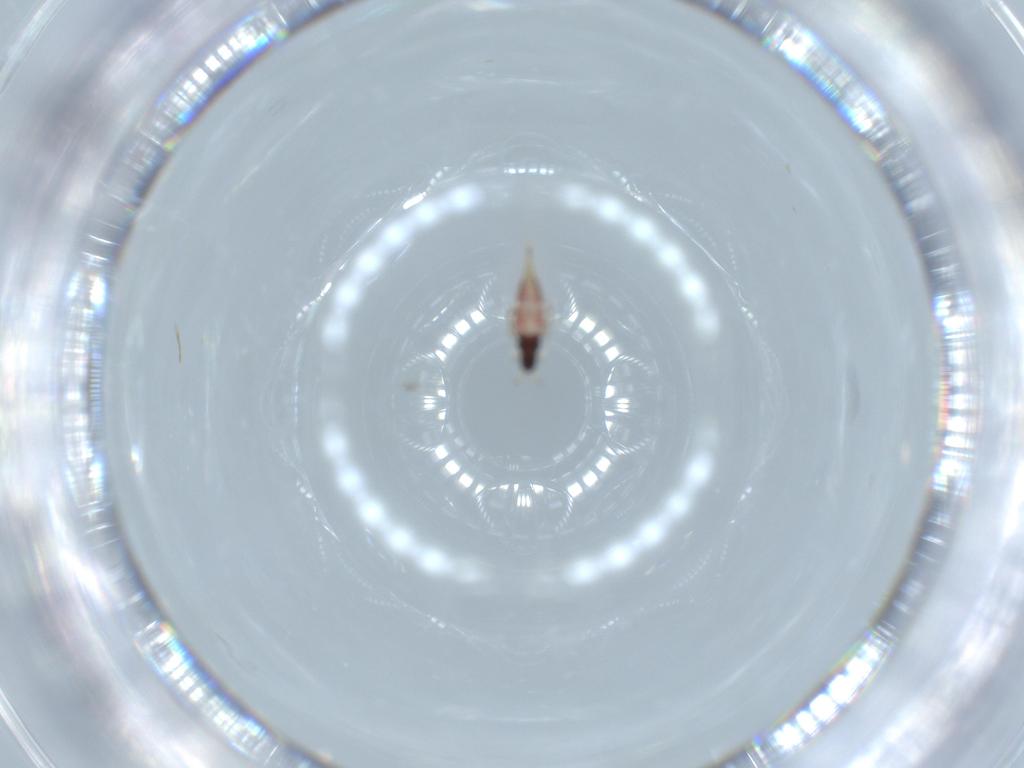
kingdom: Animalia
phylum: Arthropoda
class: Insecta
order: Thysanoptera
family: Phlaeothripidae
